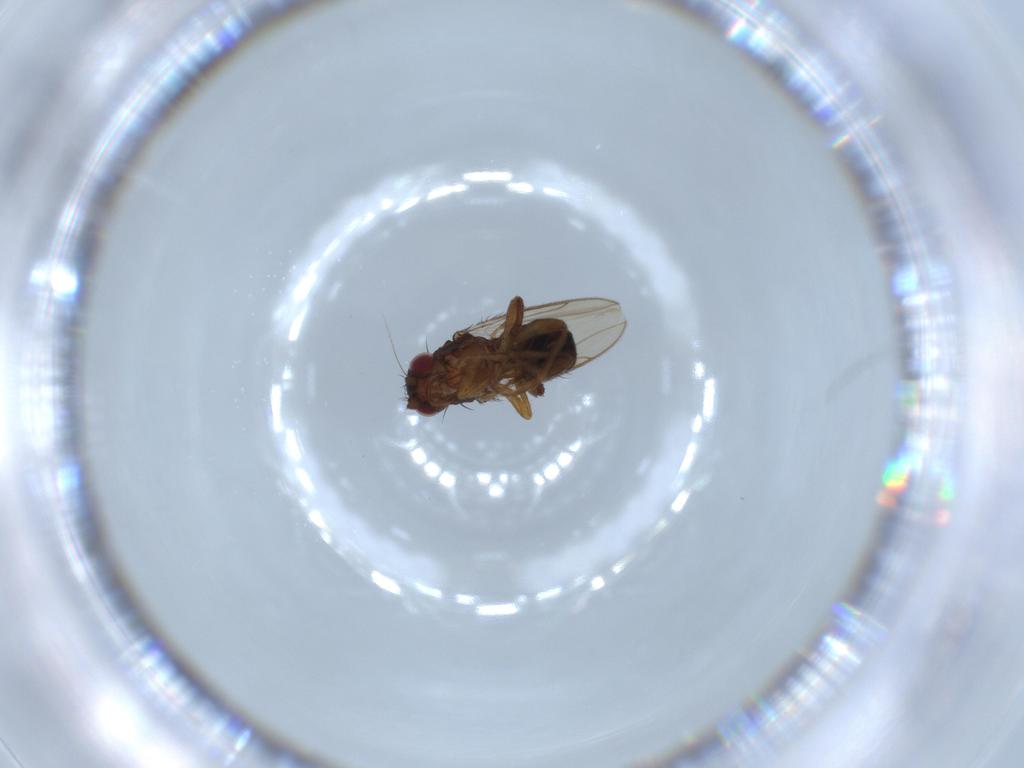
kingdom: Animalia
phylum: Arthropoda
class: Insecta
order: Diptera
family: Sphaeroceridae
